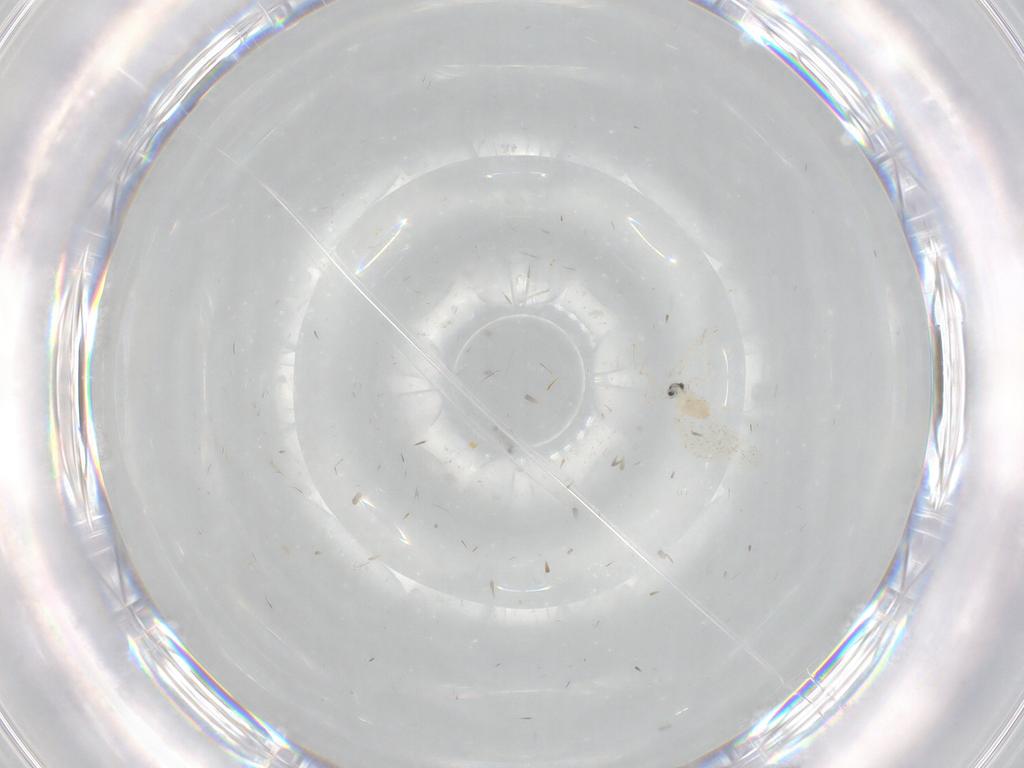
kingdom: Animalia
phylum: Arthropoda
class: Insecta
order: Diptera
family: Cecidomyiidae
